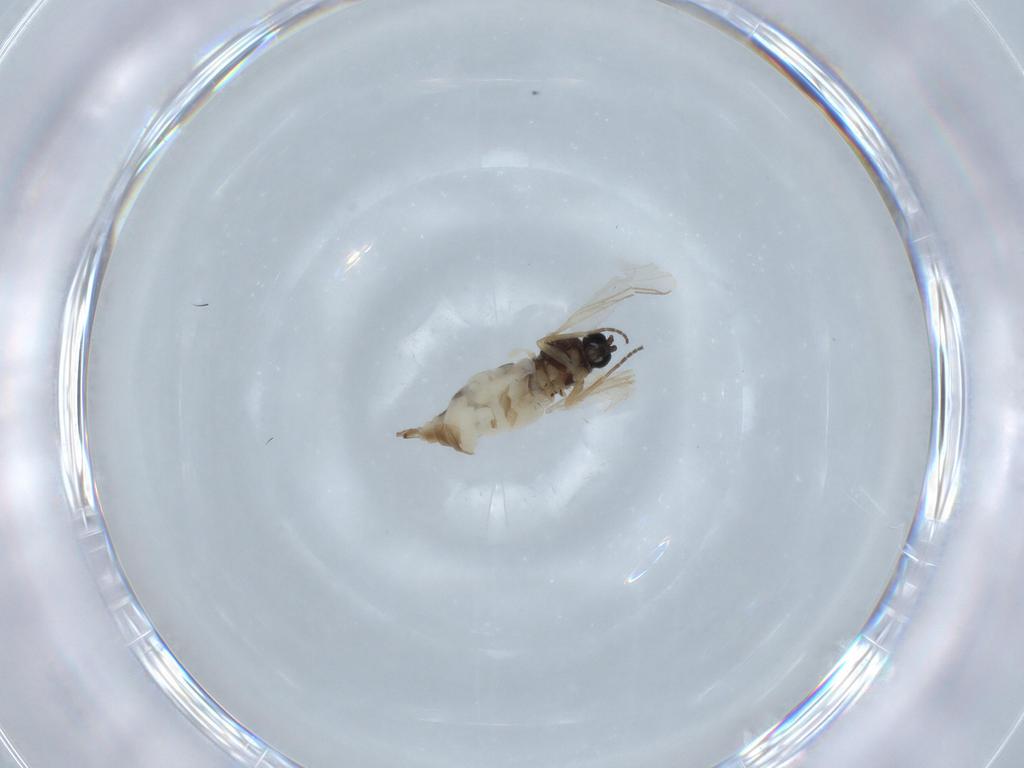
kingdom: Animalia
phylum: Arthropoda
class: Insecta
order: Diptera
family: Sciaridae
